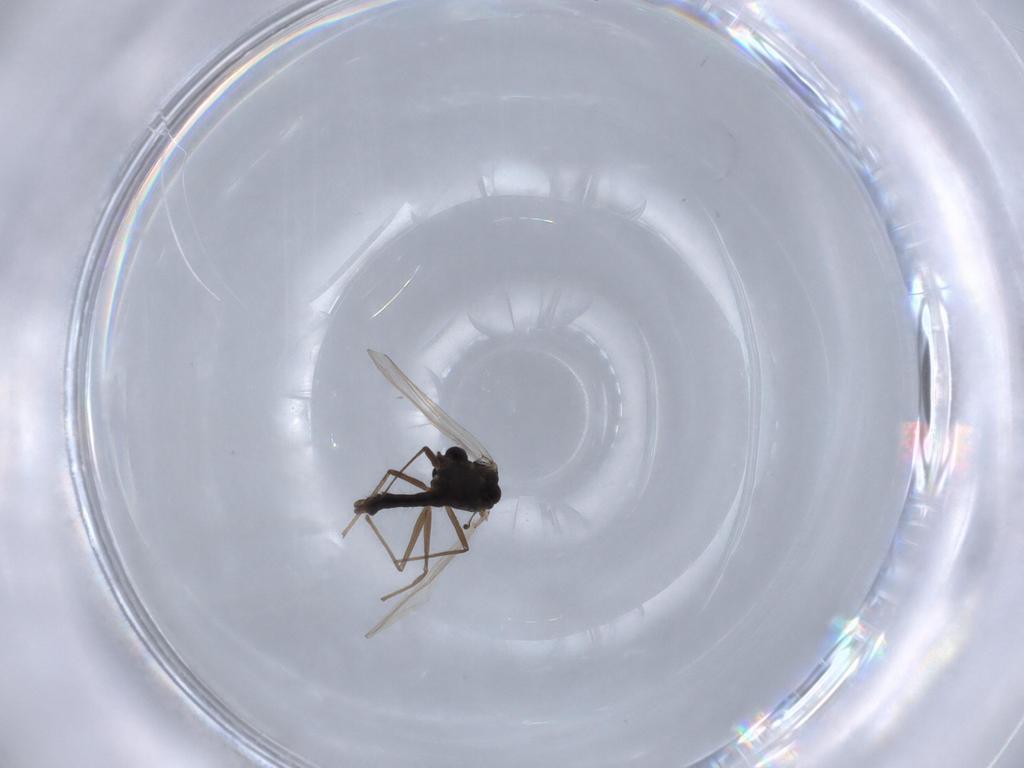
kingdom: Animalia
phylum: Arthropoda
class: Insecta
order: Diptera
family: Chironomidae
